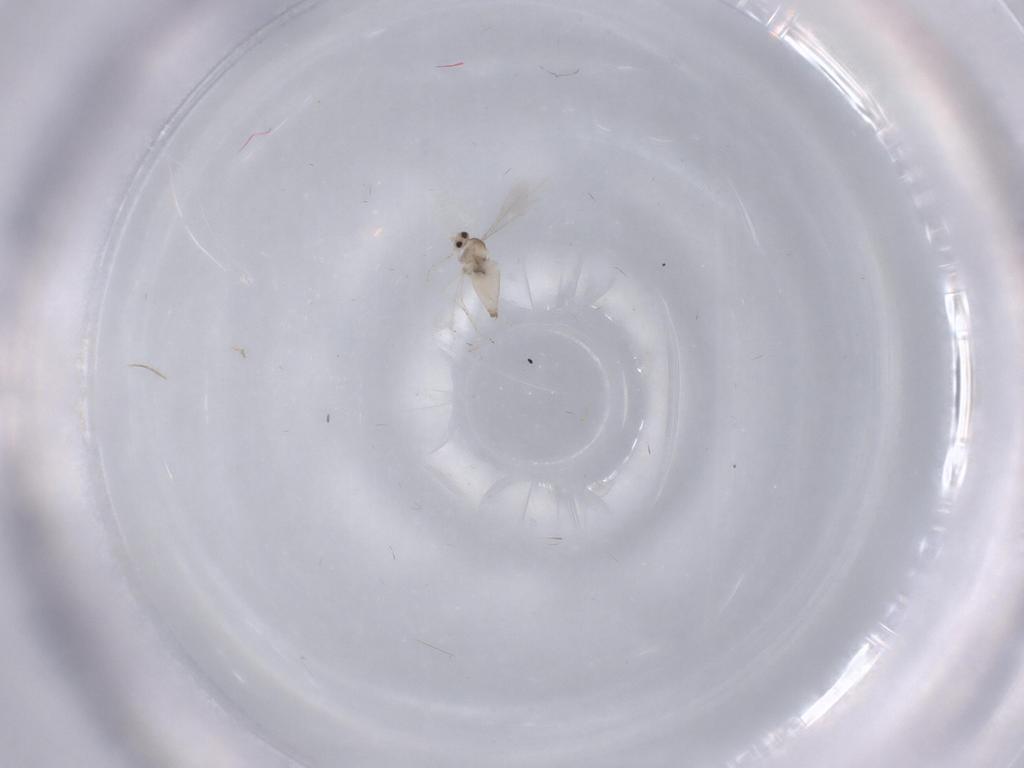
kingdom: Animalia
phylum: Arthropoda
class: Insecta
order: Diptera
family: Cecidomyiidae
